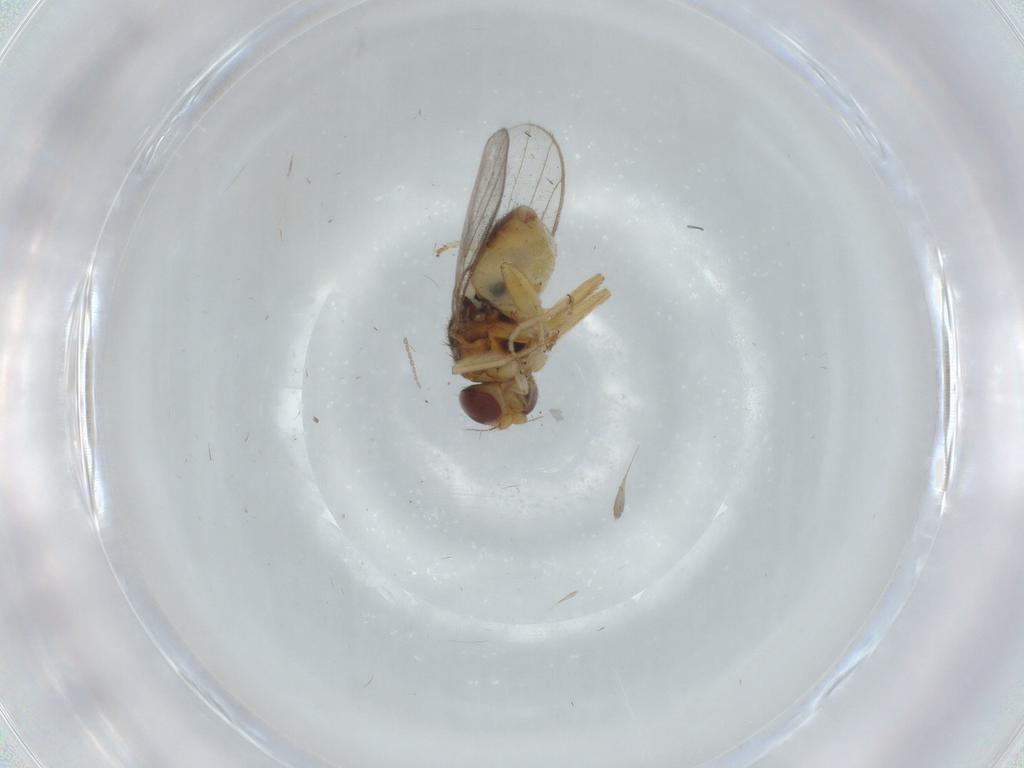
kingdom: Animalia
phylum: Arthropoda
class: Insecta
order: Diptera
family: Chloropidae
